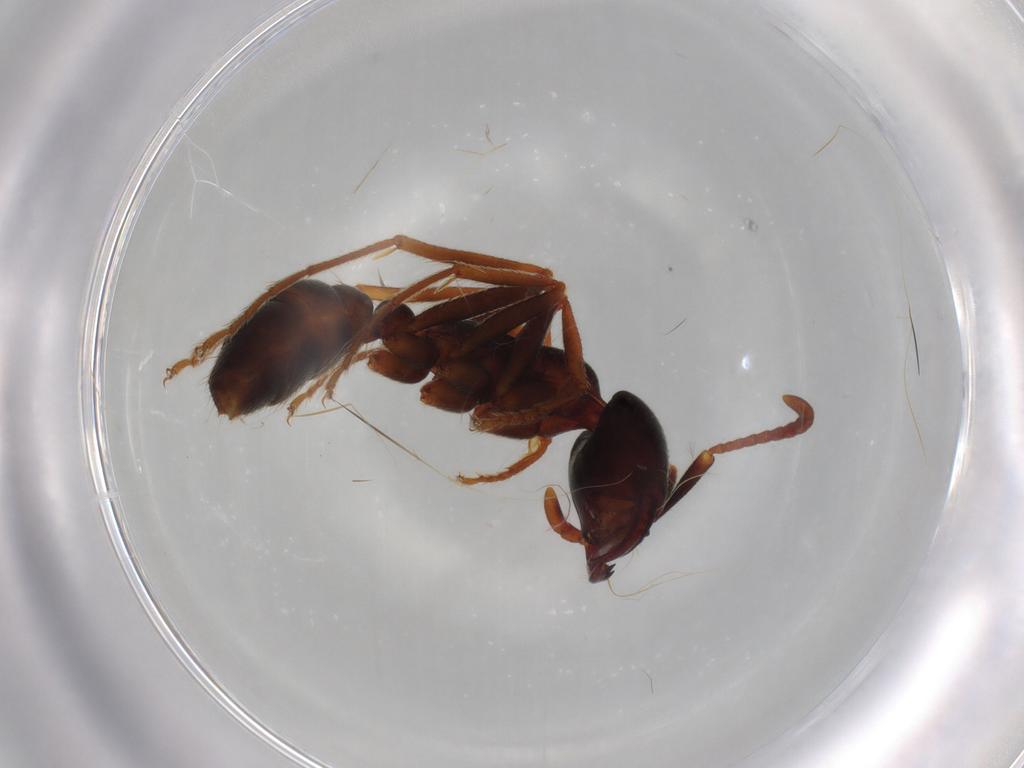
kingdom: Animalia
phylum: Arthropoda
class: Insecta
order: Hymenoptera
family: Formicidae
